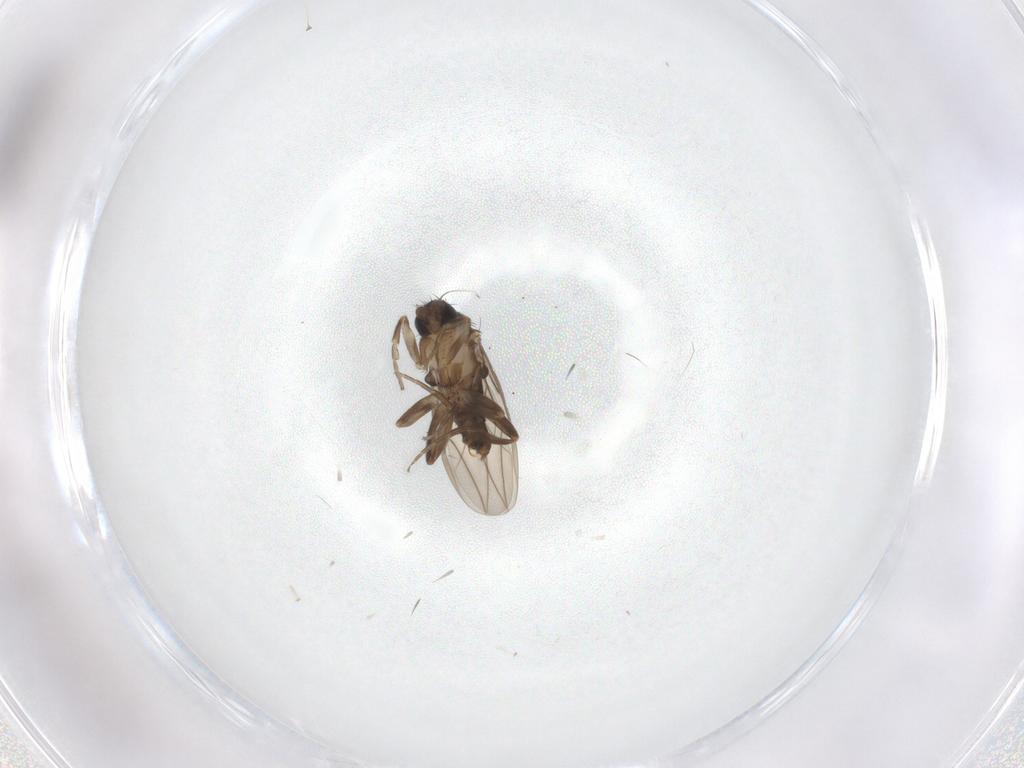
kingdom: Animalia
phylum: Arthropoda
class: Insecta
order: Diptera
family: Phoridae
